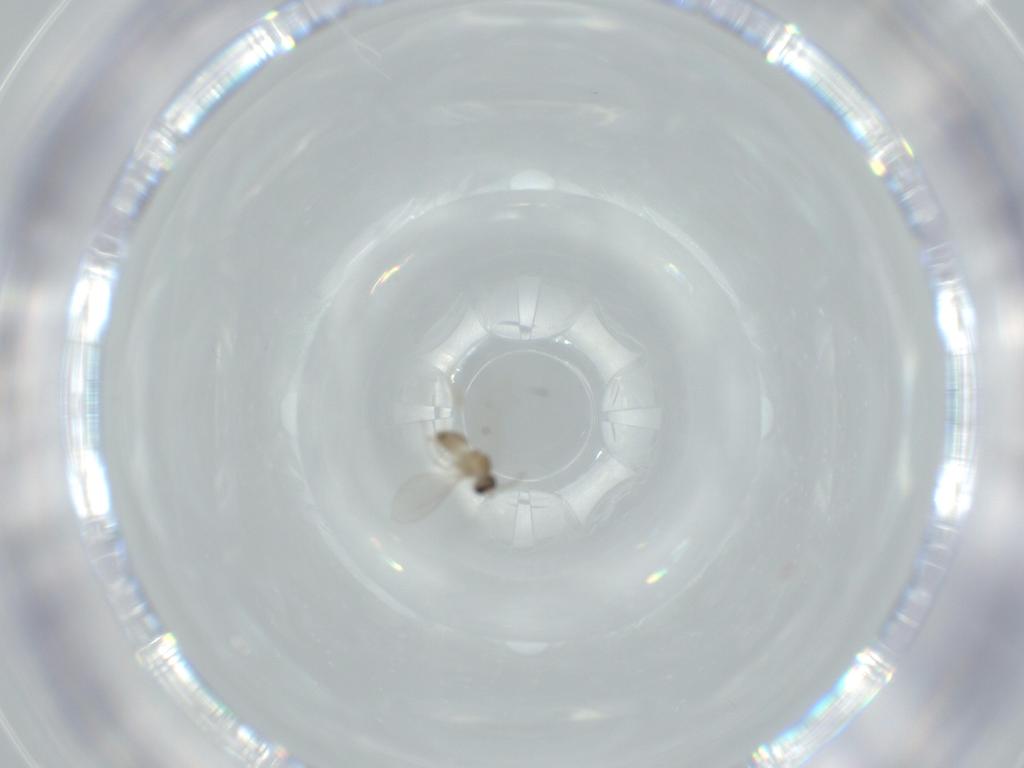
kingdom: Animalia
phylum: Arthropoda
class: Insecta
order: Diptera
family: Phoridae
